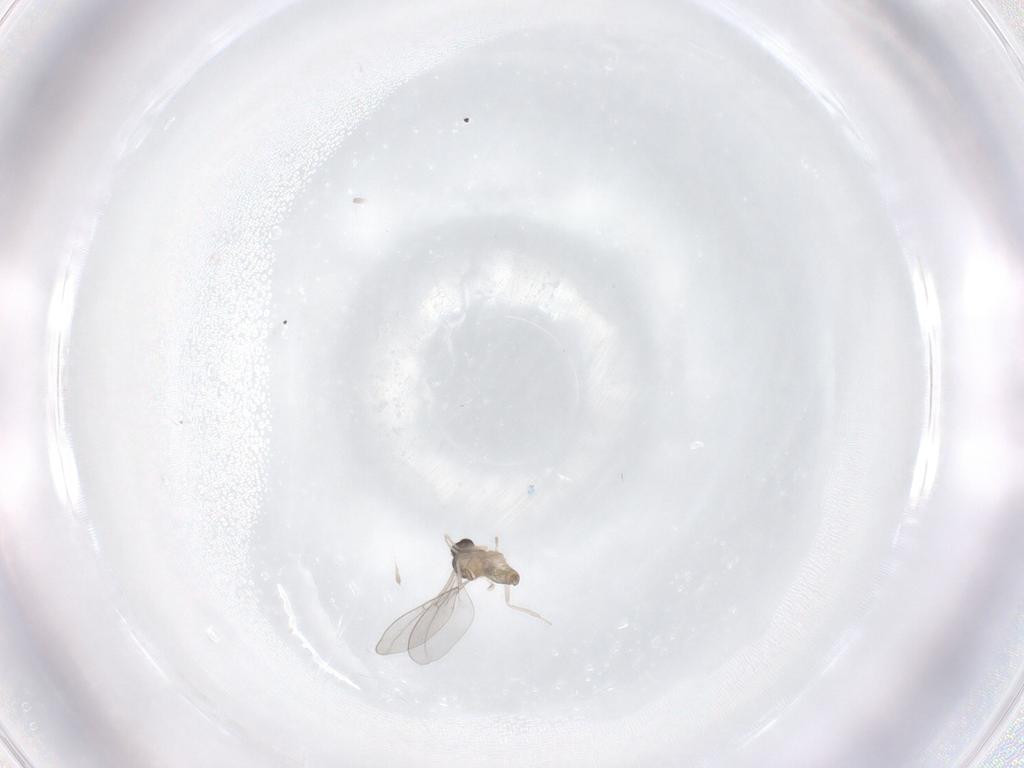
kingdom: Animalia
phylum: Arthropoda
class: Insecta
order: Diptera
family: Cecidomyiidae
